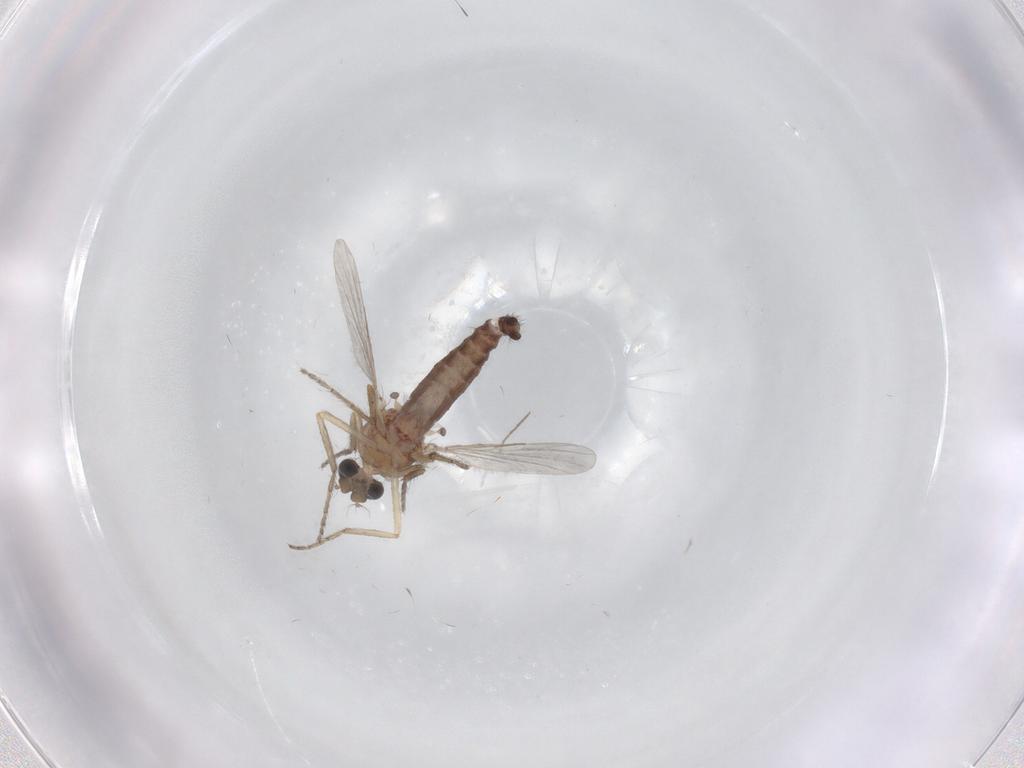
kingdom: Animalia
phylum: Arthropoda
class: Insecta
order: Diptera
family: Ceratopogonidae
